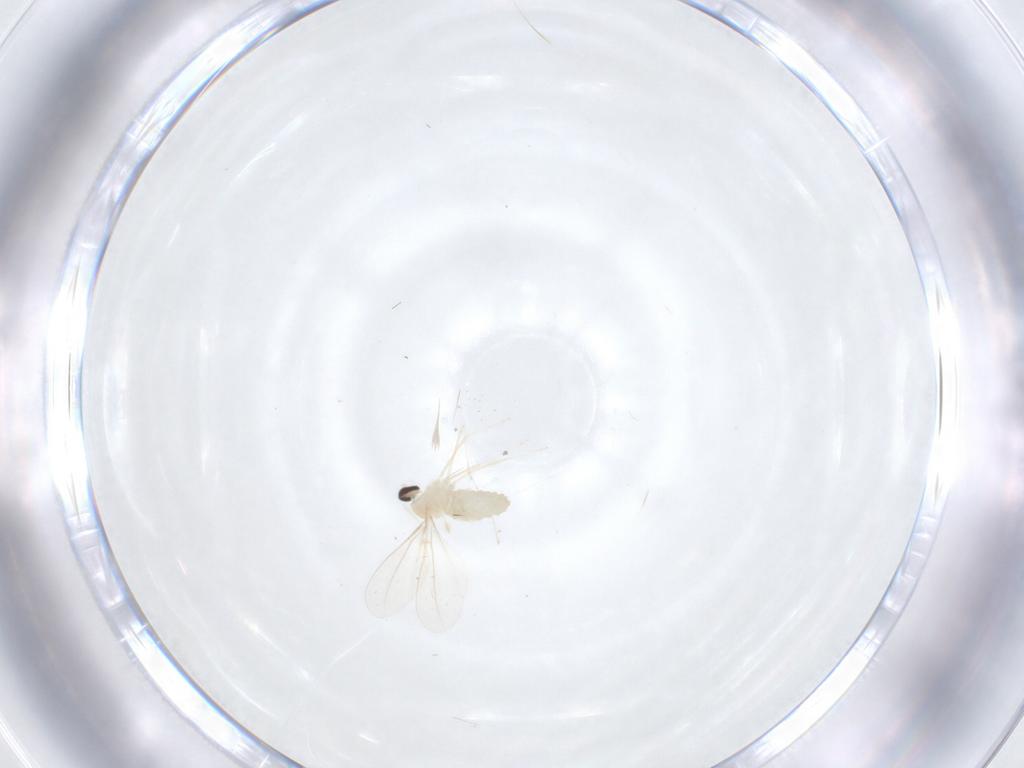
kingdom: Animalia
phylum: Arthropoda
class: Insecta
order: Diptera
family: Cecidomyiidae
